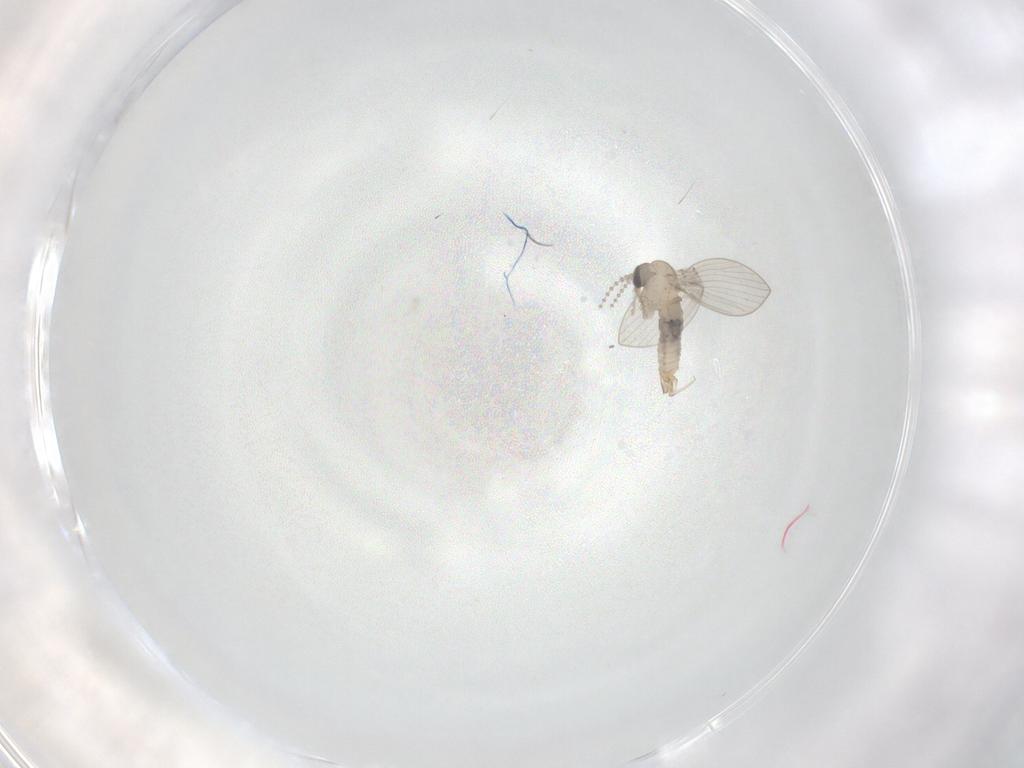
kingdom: Animalia
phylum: Arthropoda
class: Insecta
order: Diptera
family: Psychodidae
